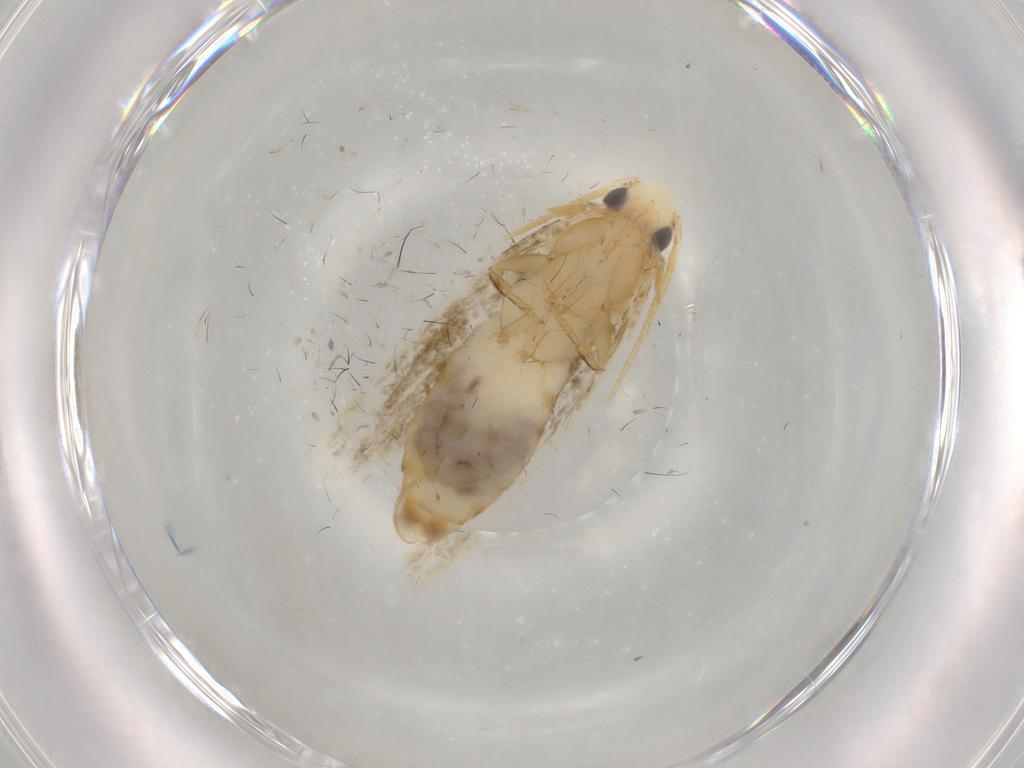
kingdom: Animalia
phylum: Arthropoda
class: Insecta
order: Lepidoptera
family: Tineidae
